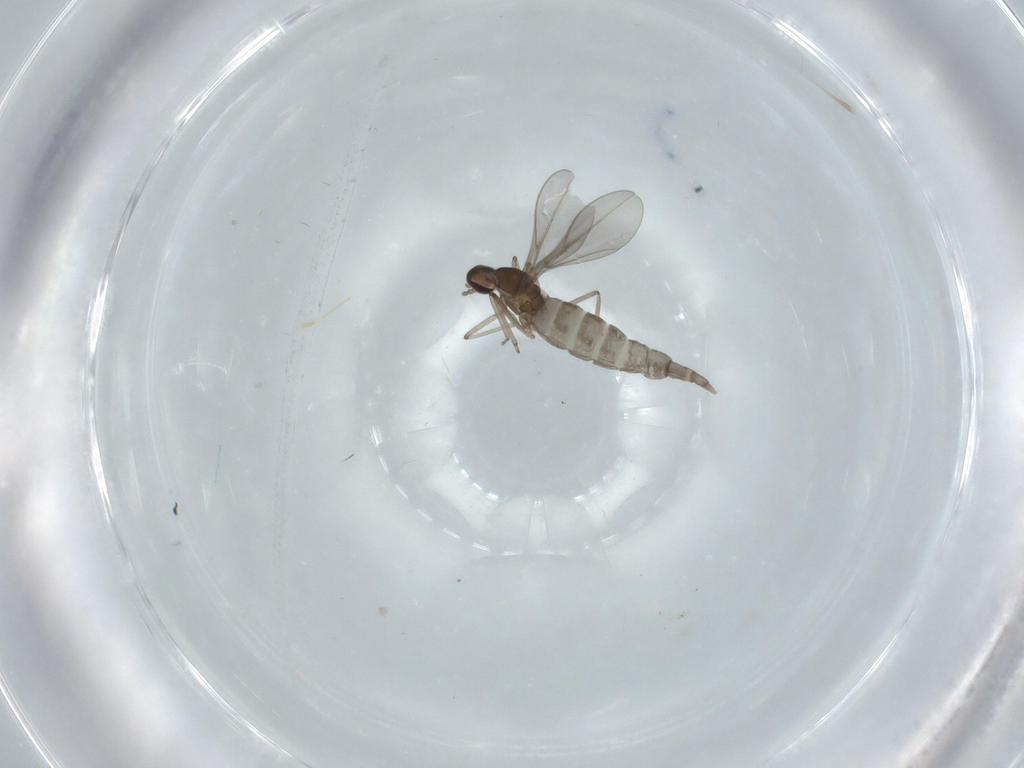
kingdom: Animalia
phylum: Arthropoda
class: Insecta
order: Diptera
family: Cecidomyiidae
